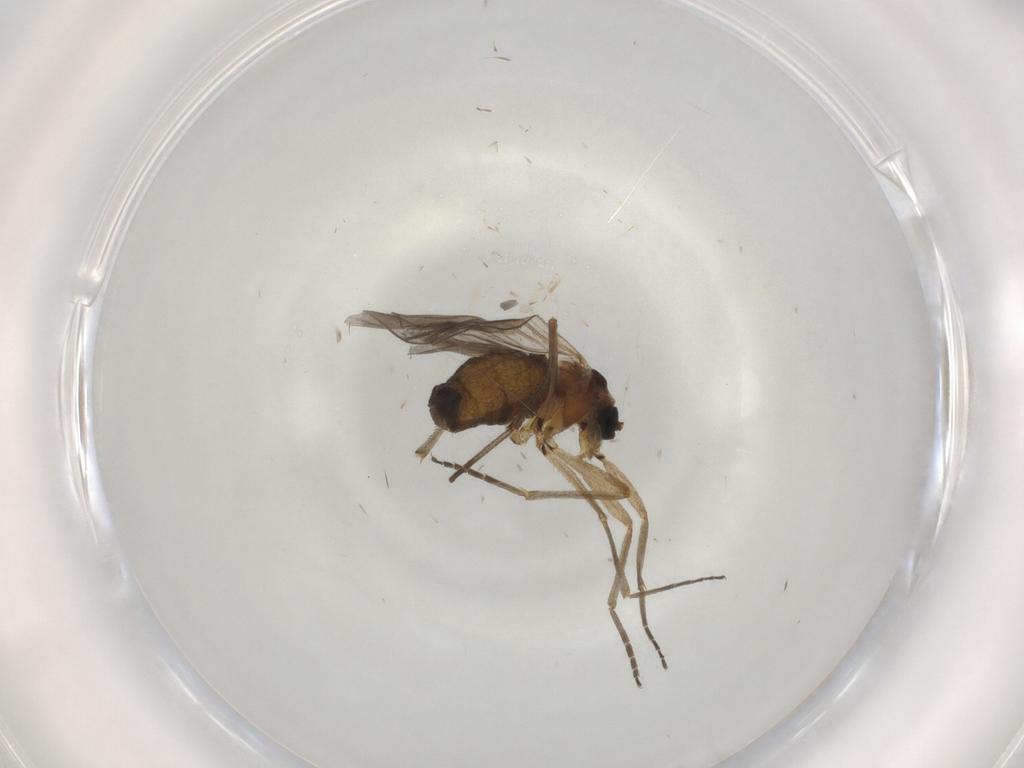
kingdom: Animalia
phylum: Arthropoda
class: Insecta
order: Diptera
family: Sciaridae
